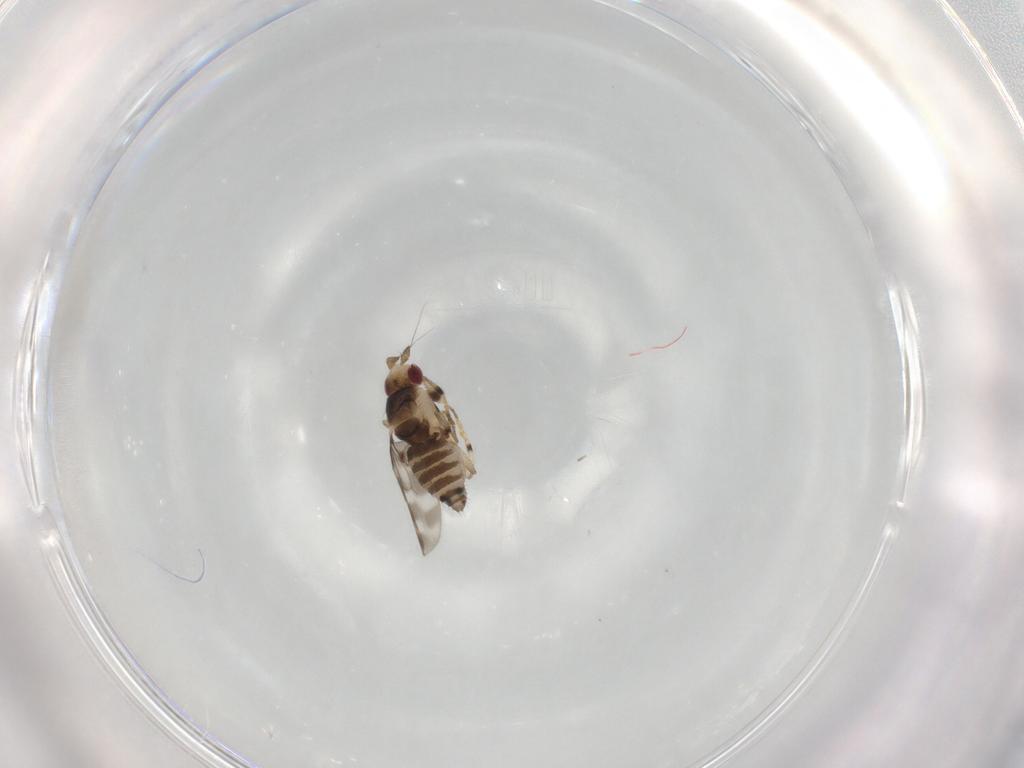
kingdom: Animalia
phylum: Arthropoda
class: Insecta
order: Diptera
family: Sphaeroceridae
